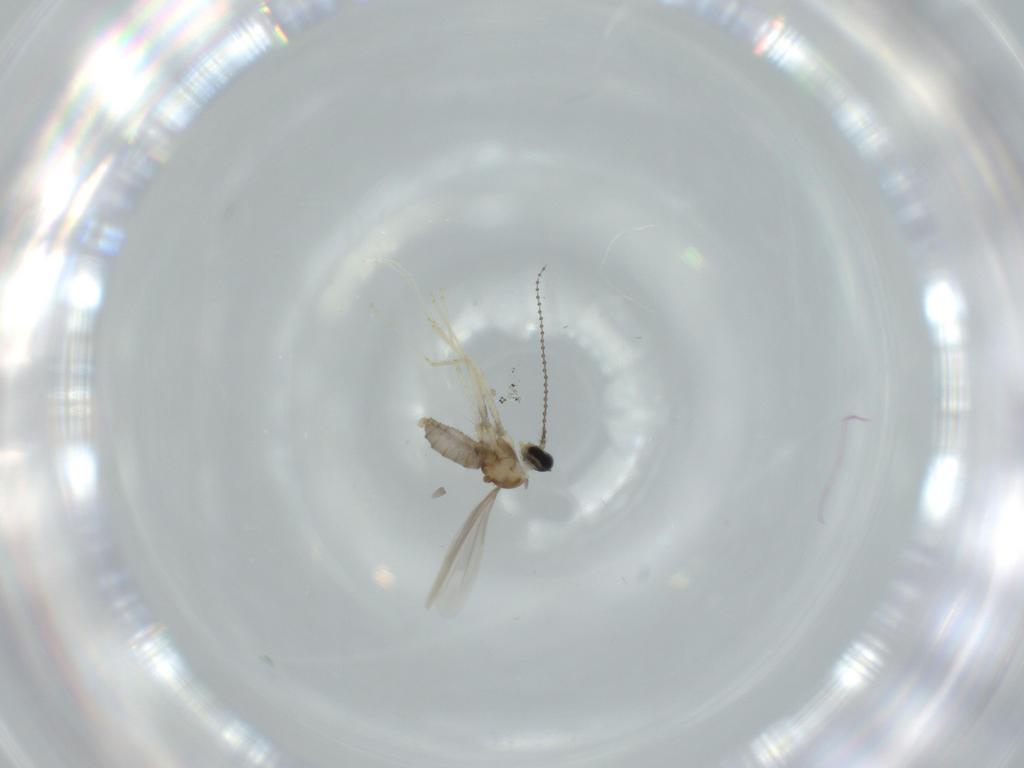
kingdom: Animalia
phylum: Arthropoda
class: Insecta
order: Diptera
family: Cecidomyiidae
